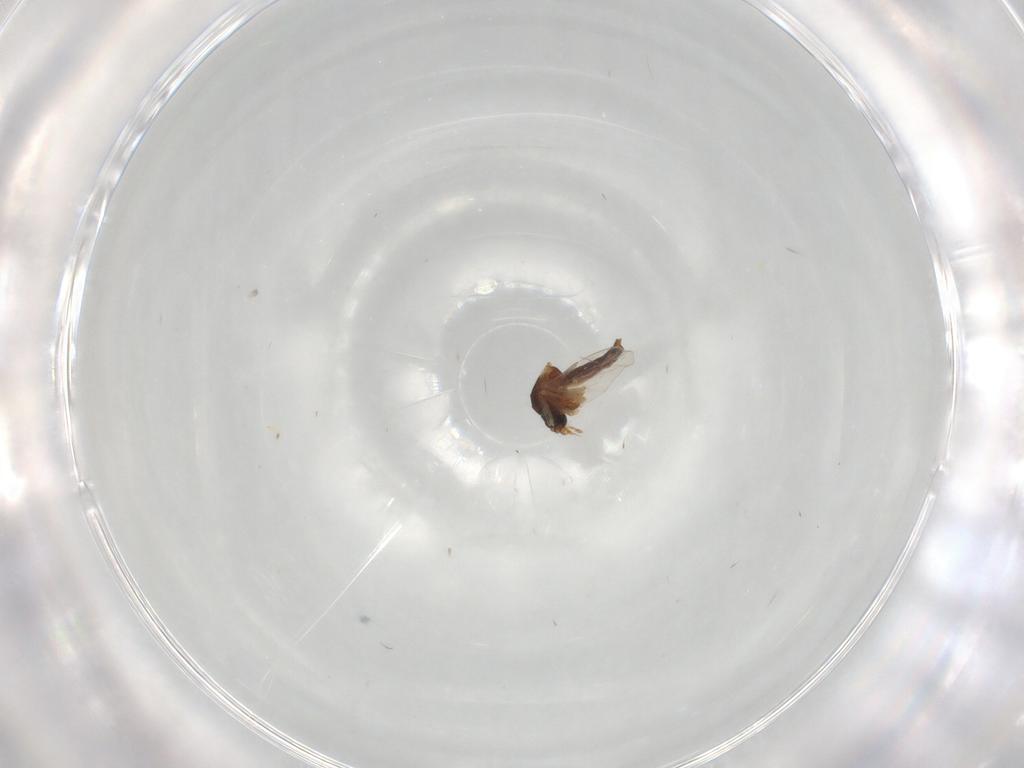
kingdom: Animalia
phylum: Arthropoda
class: Insecta
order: Diptera
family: Ceratopogonidae
